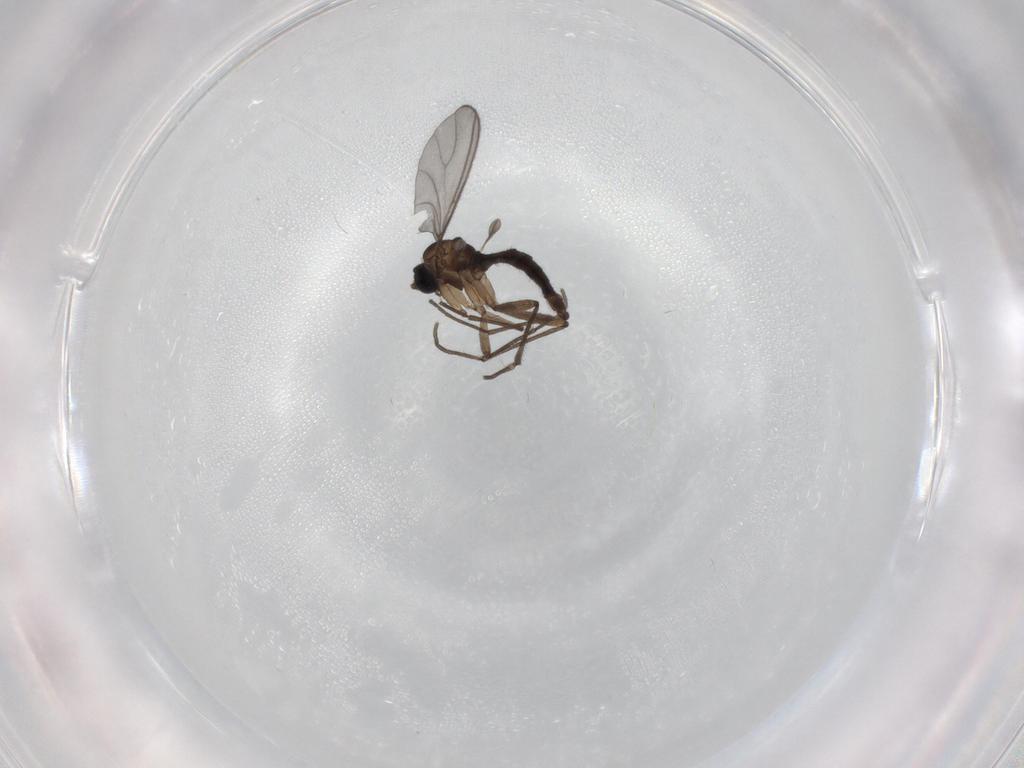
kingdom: Animalia
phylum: Arthropoda
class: Insecta
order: Diptera
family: Sciaridae
